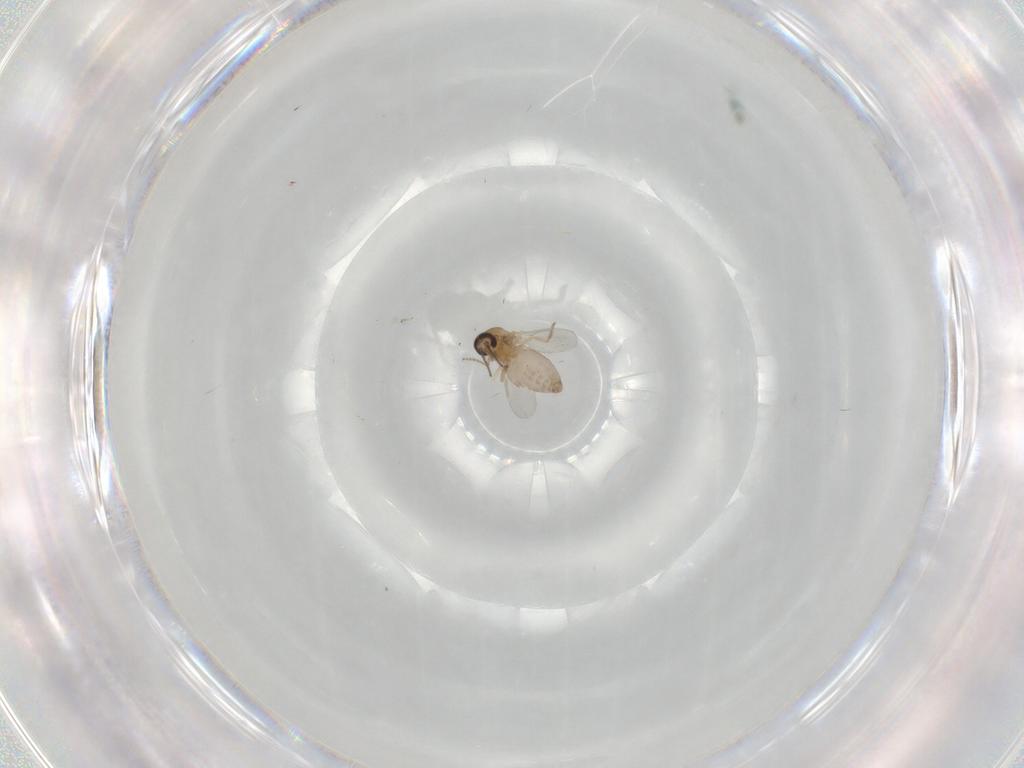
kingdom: Animalia
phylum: Arthropoda
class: Insecta
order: Diptera
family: Ceratopogonidae
